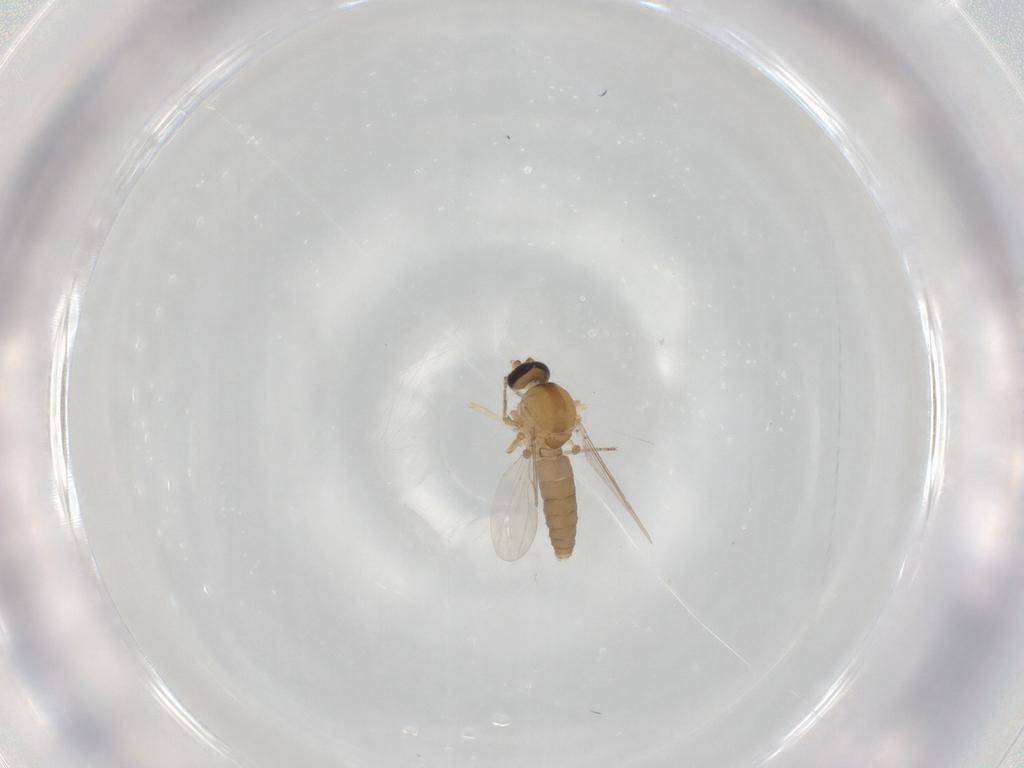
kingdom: Animalia
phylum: Arthropoda
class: Insecta
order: Diptera
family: Ceratopogonidae
